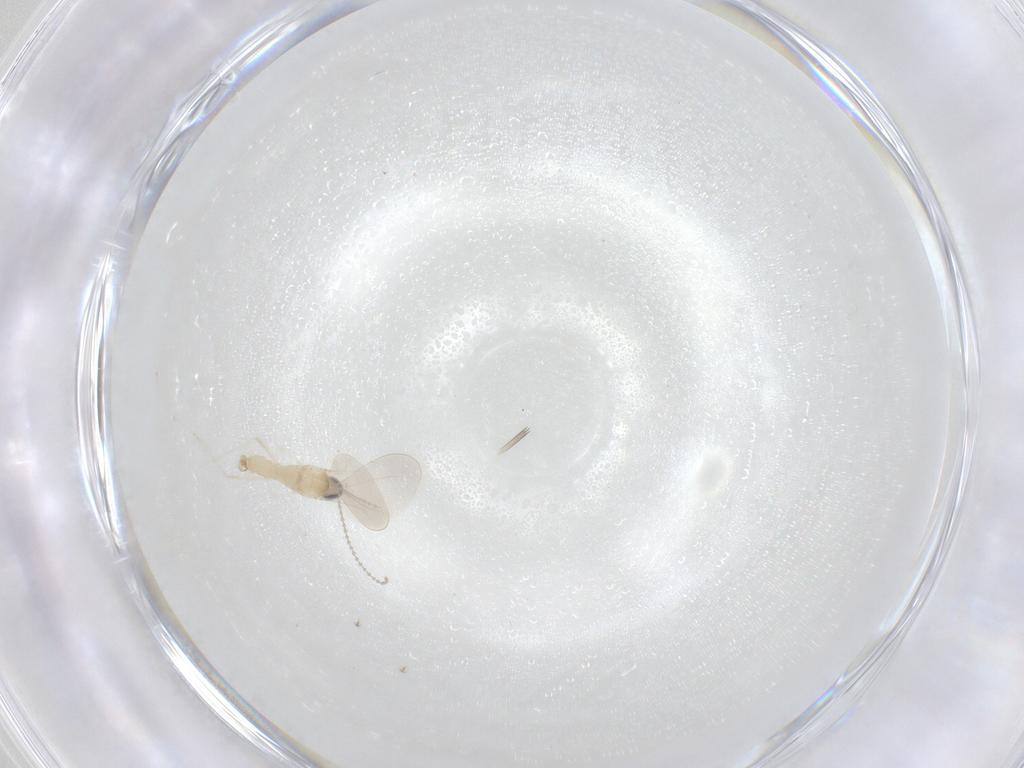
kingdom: Animalia
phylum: Arthropoda
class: Insecta
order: Diptera
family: Cecidomyiidae
